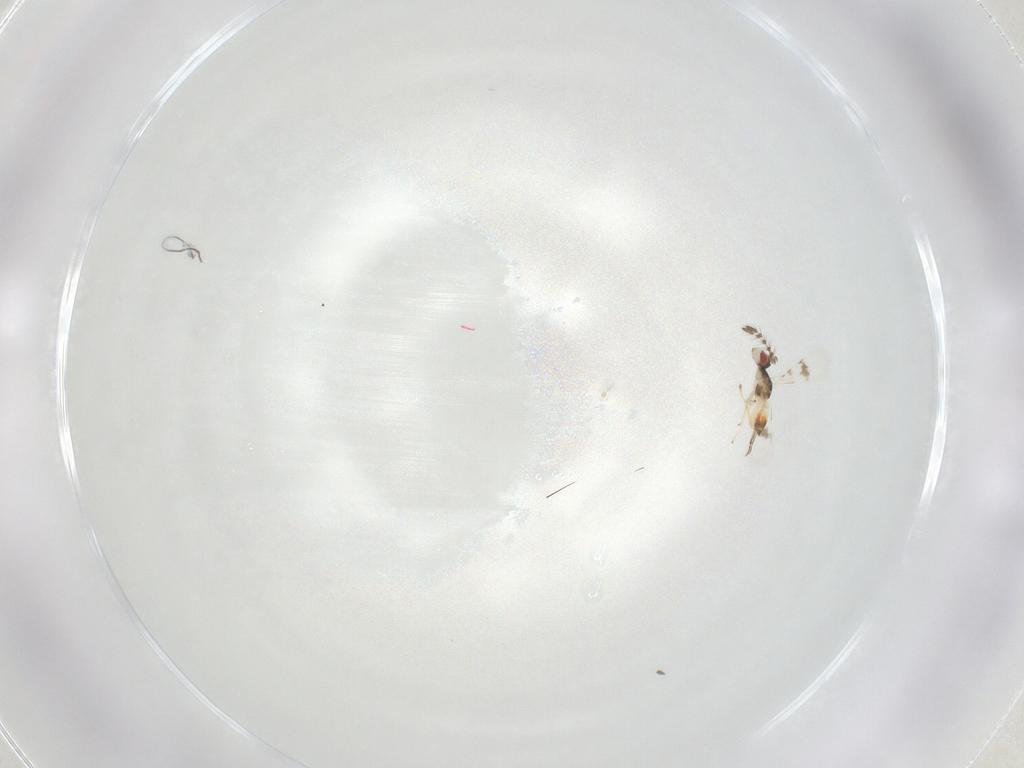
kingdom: Animalia
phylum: Arthropoda
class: Insecta
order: Hymenoptera
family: Eulophidae
